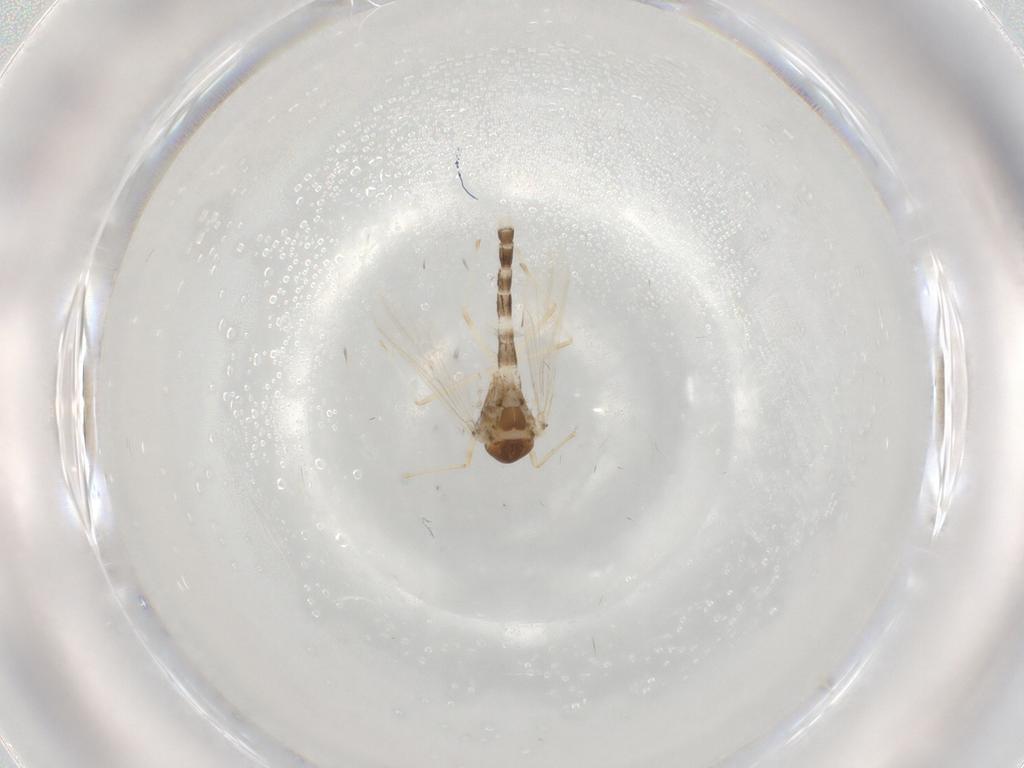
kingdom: Animalia
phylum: Arthropoda
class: Insecta
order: Diptera
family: Chironomidae
